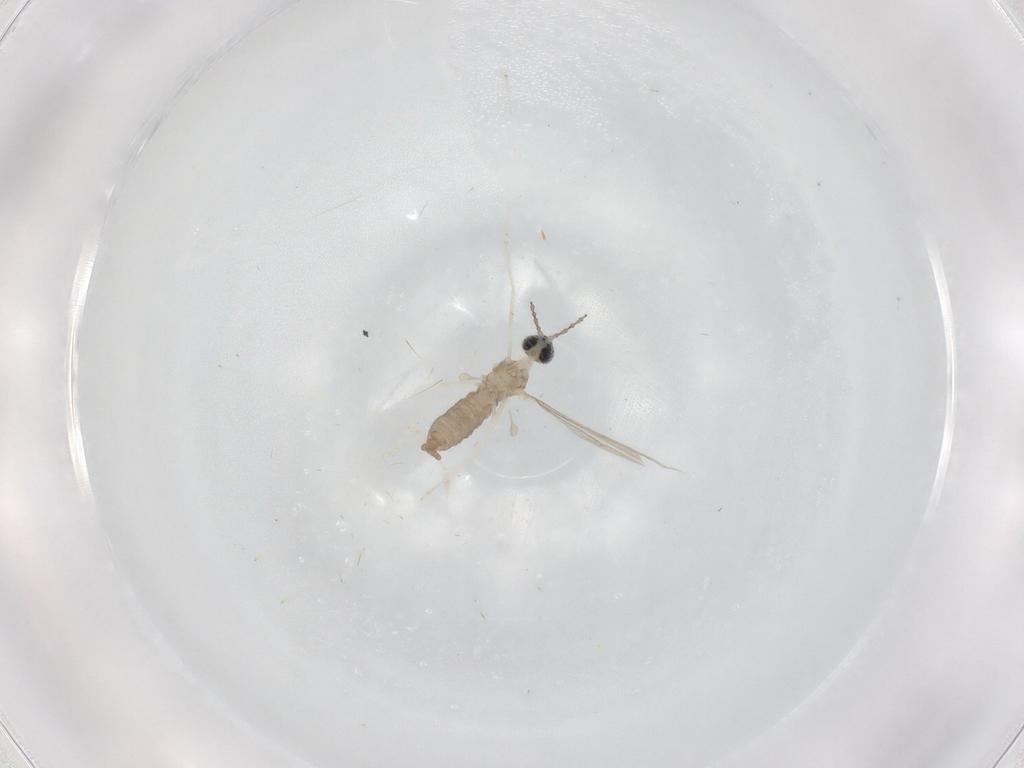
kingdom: Animalia
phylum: Arthropoda
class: Insecta
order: Diptera
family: Cecidomyiidae
